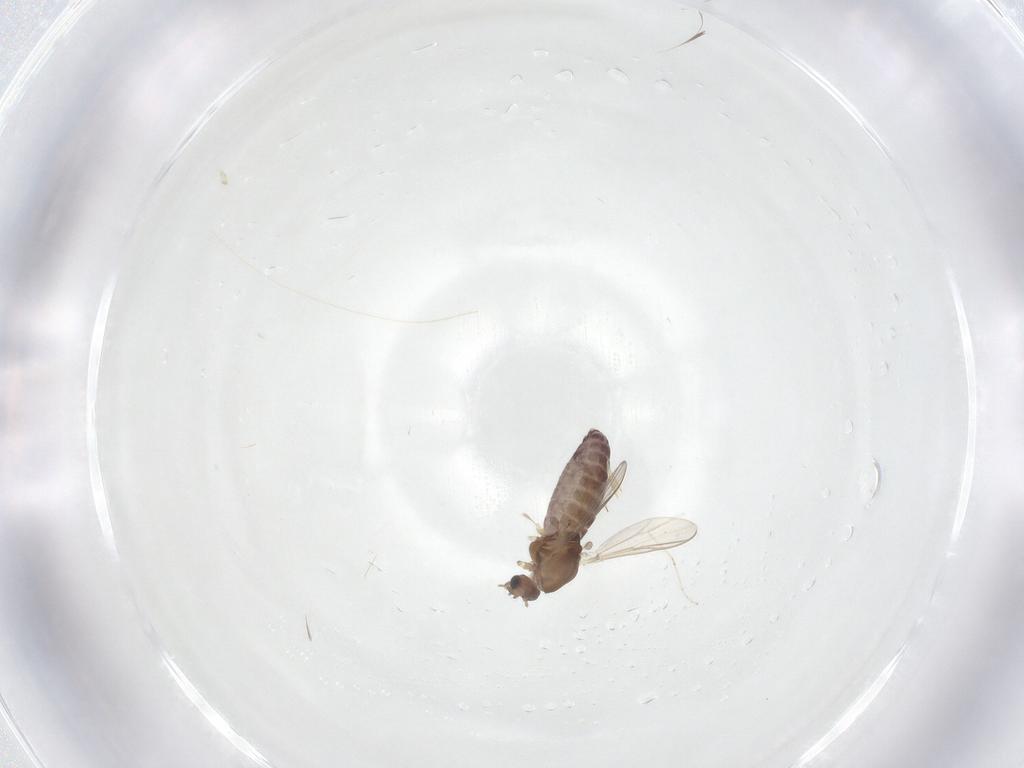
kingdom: Animalia
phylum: Arthropoda
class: Insecta
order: Diptera
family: Chironomidae
